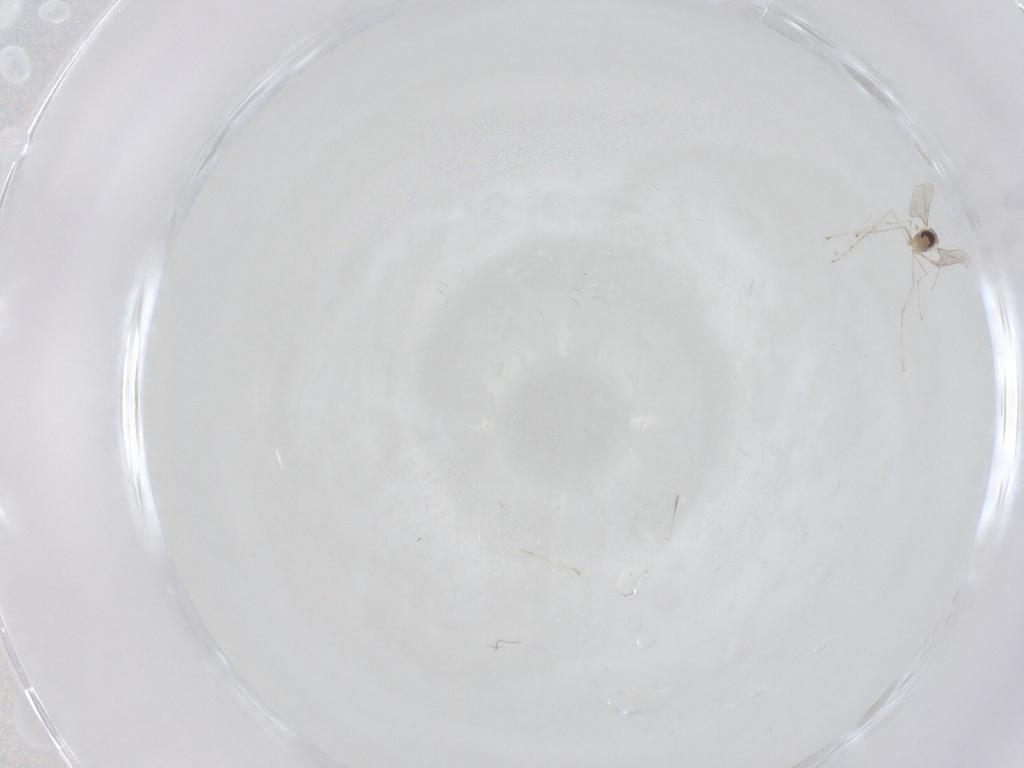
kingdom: Animalia
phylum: Arthropoda
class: Insecta
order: Diptera
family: Cecidomyiidae
